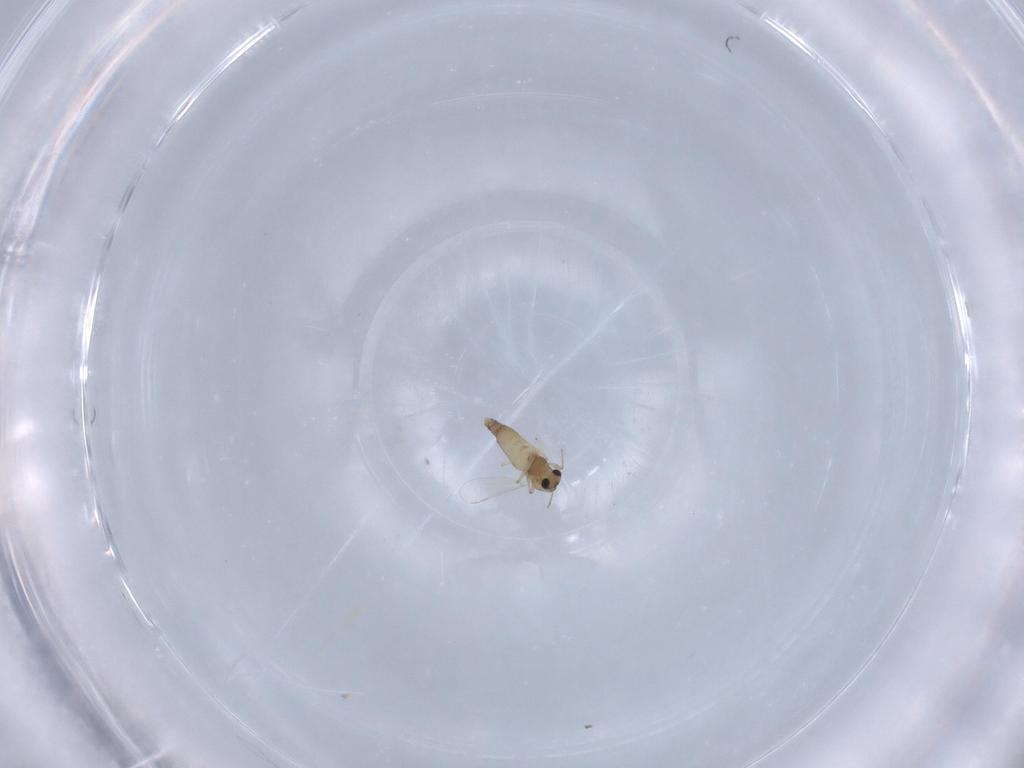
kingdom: Animalia
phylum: Arthropoda
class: Insecta
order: Diptera
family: Chironomidae
